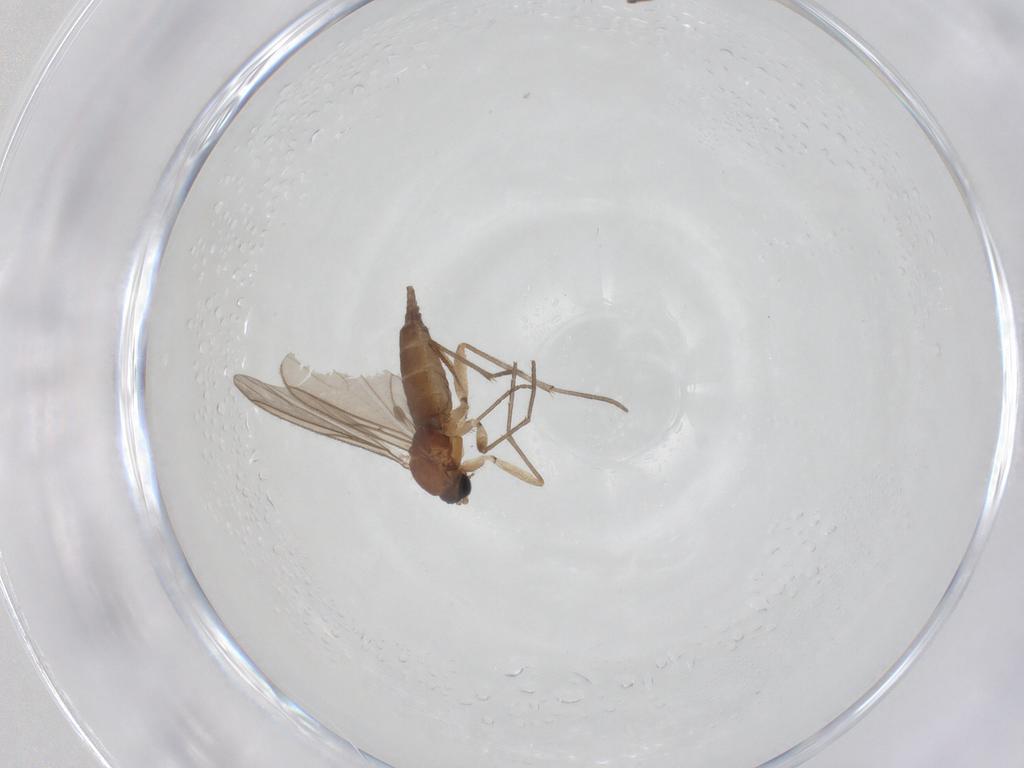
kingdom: Animalia
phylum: Arthropoda
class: Insecta
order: Diptera
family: Sciaridae
